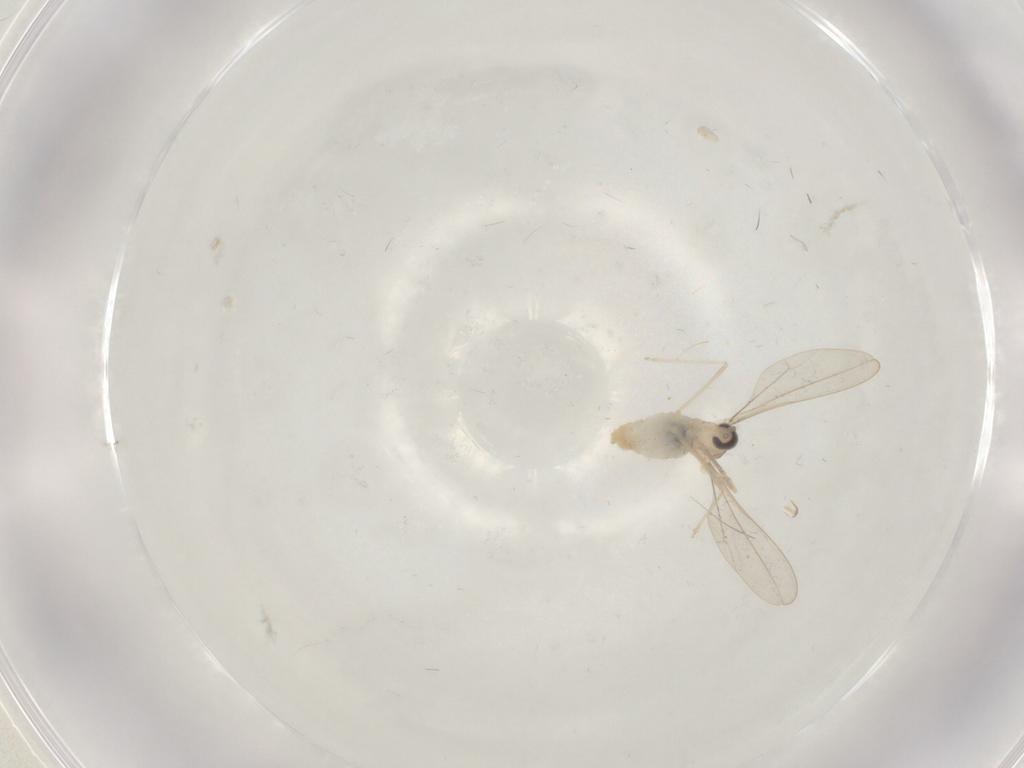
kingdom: Animalia
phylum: Arthropoda
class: Insecta
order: Diptera
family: Cecidomyiidae
